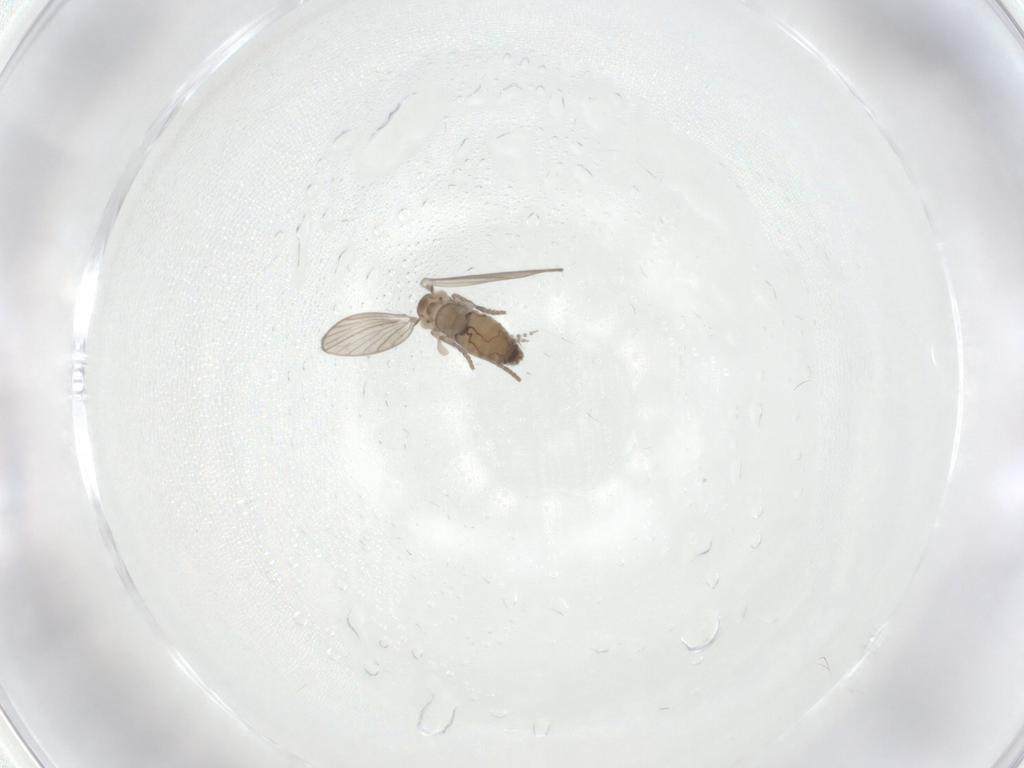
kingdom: Animalia
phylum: Arthropoda
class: Insecta
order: Diptera
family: Psychodidae
